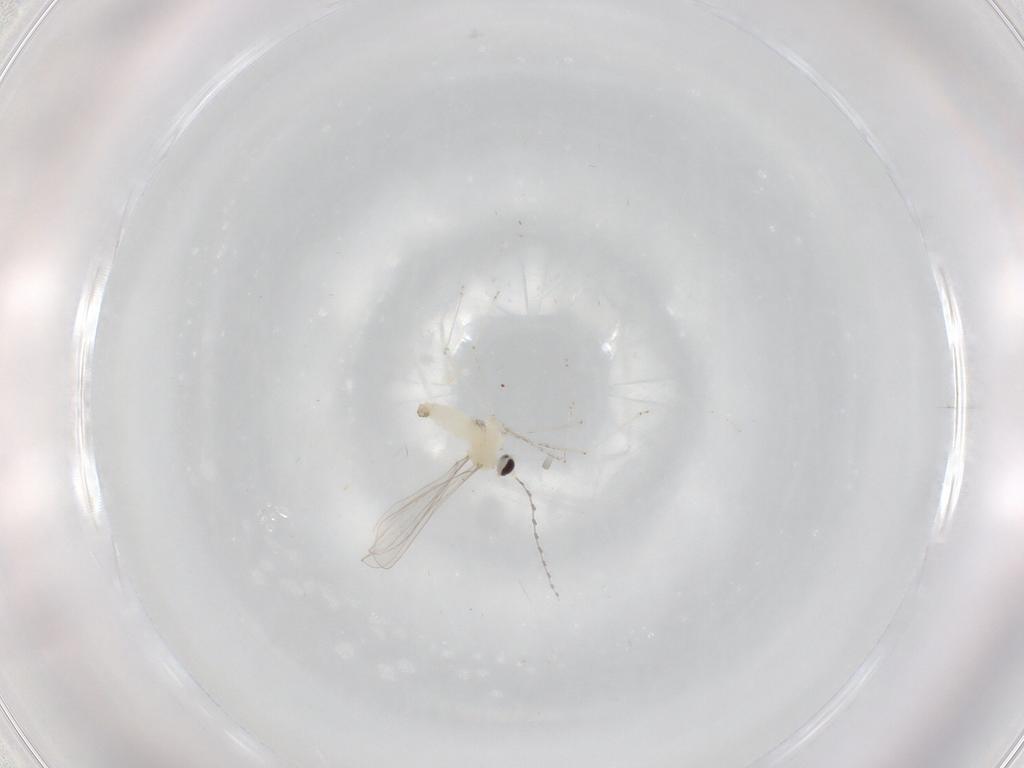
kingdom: Animalia
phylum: Arthropoda
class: Insecta
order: Diptera
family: Cecidomyiidae
